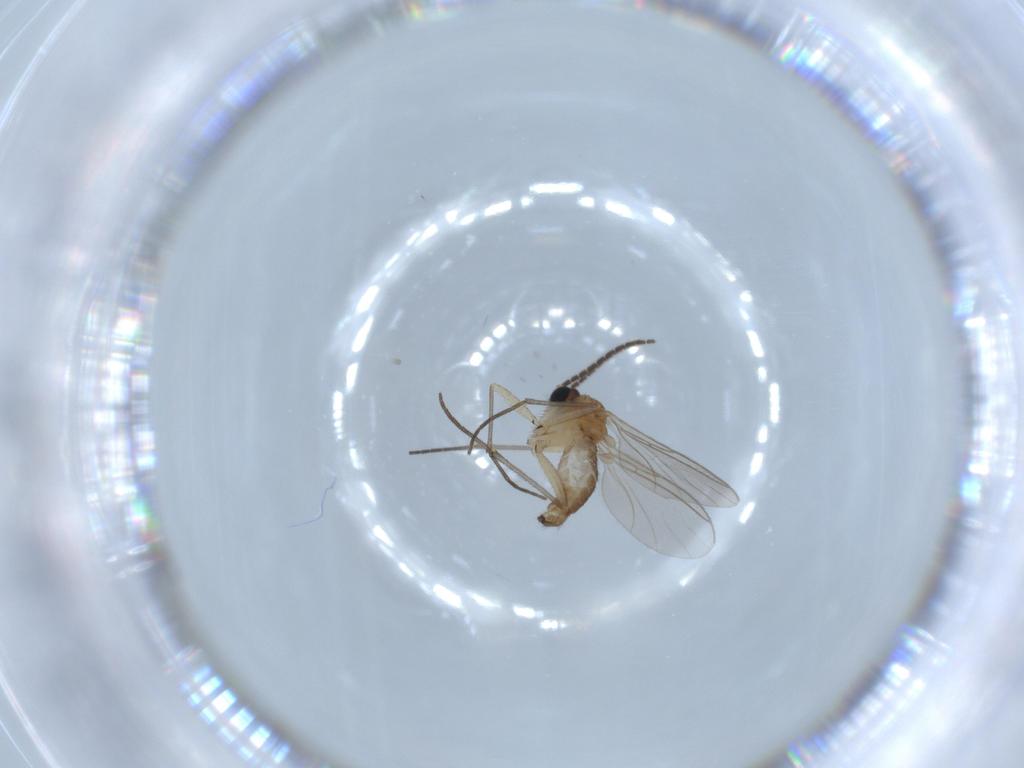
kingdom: Animalia
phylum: Arthropoda
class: Insecta
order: Diptera
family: Sciaridae
